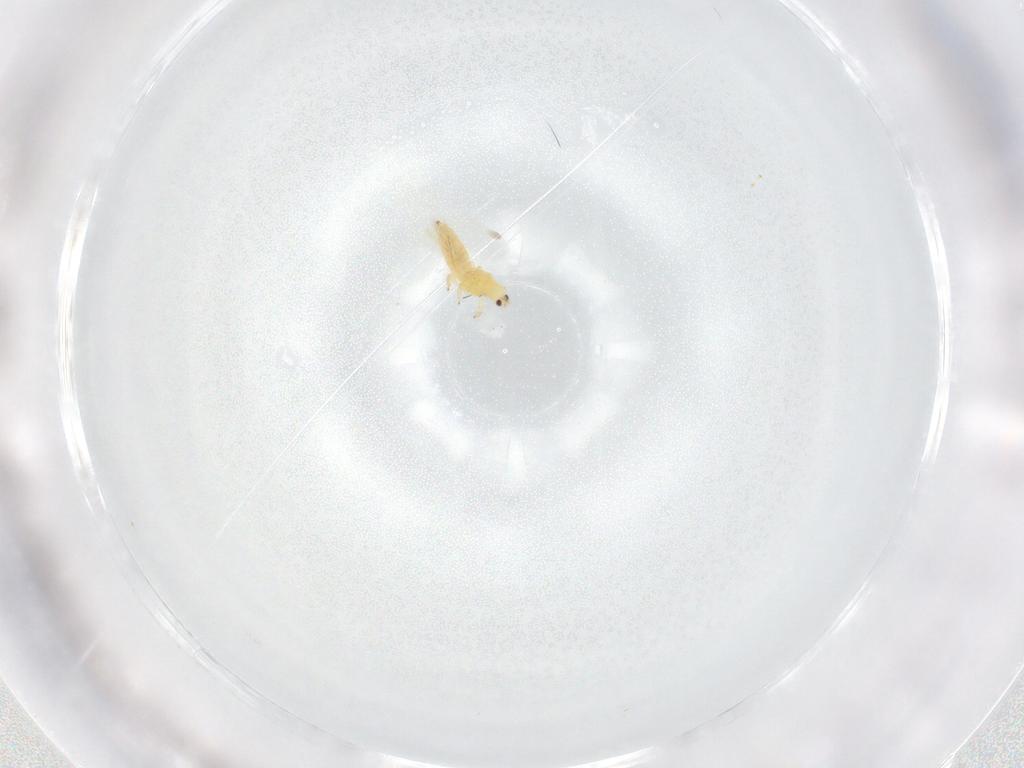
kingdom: Animalia
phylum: Arthropoda
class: Insecta
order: Thysanoptera
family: Thripidae
